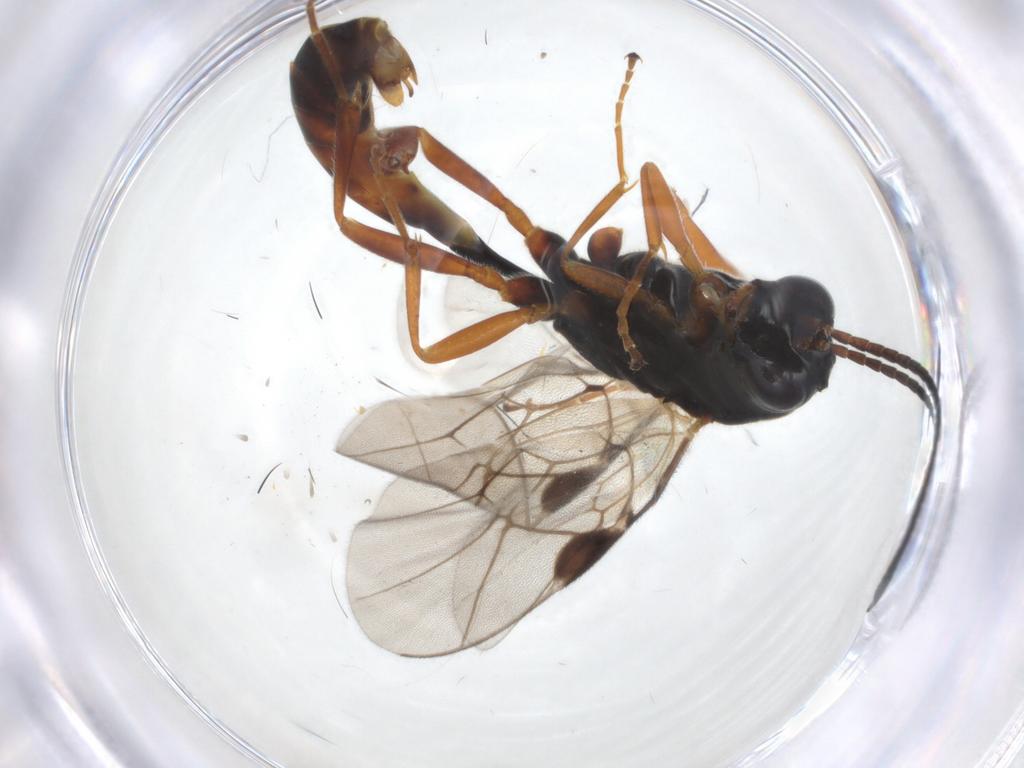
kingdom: Animalia
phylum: Arthropoda
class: Insecta
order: Hymenoptera
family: Ichneumonidae
